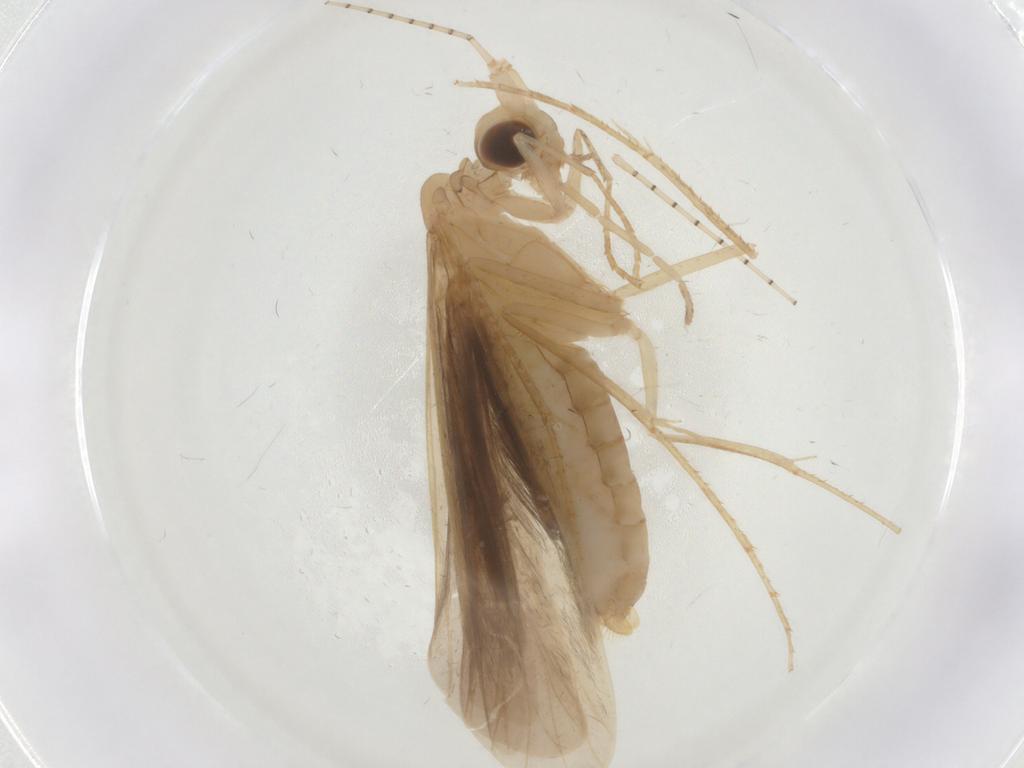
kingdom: Animalia
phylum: Arthropoda
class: Insecta
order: Trichoptera
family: Leptoceridae
